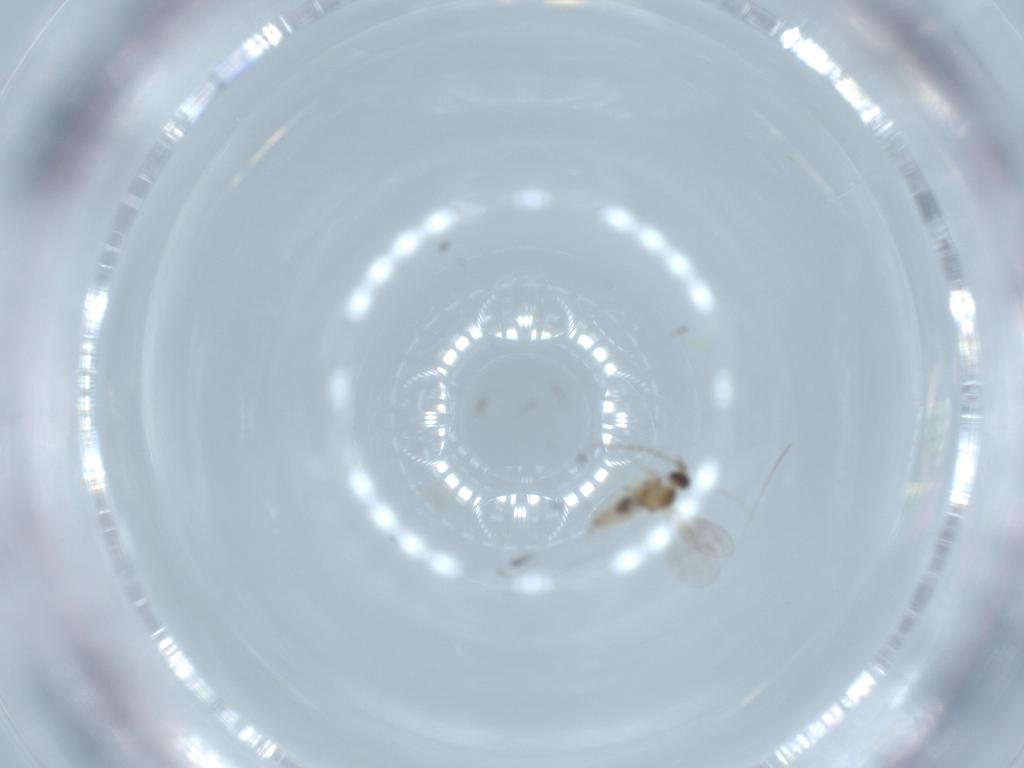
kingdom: Animalia
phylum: Arthropoda
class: Insecta
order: Diptera
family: Cecidomyiidae
